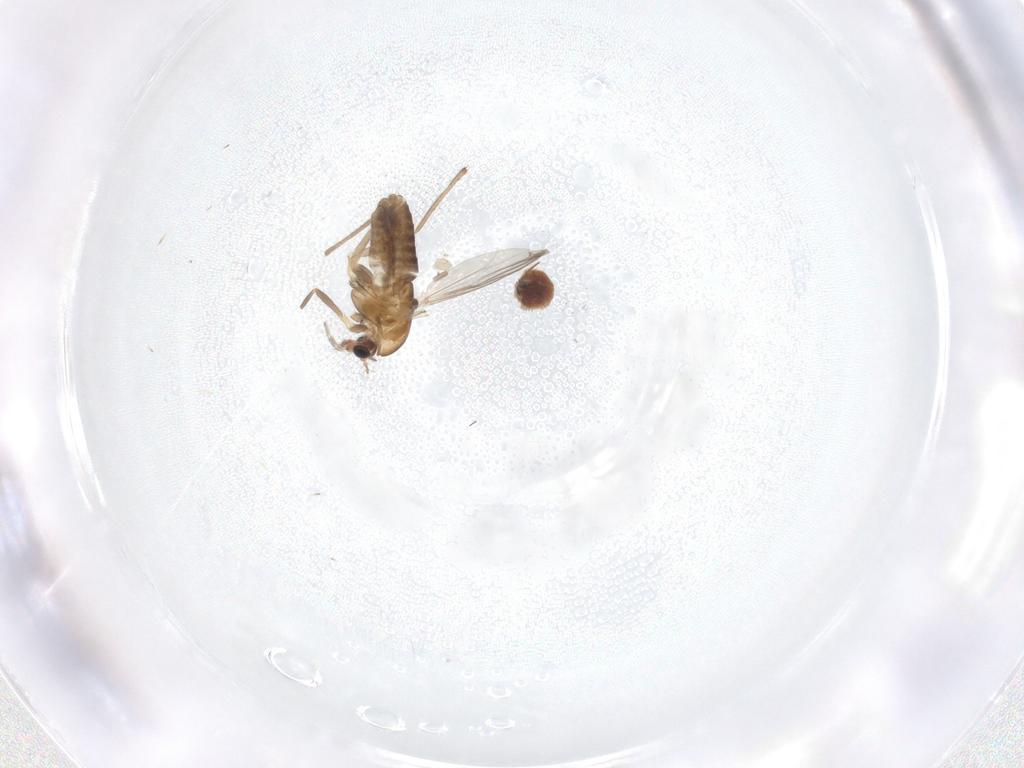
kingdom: Animalia
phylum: Arthropoda
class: Insecta
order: Diptera
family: Chironomidae
